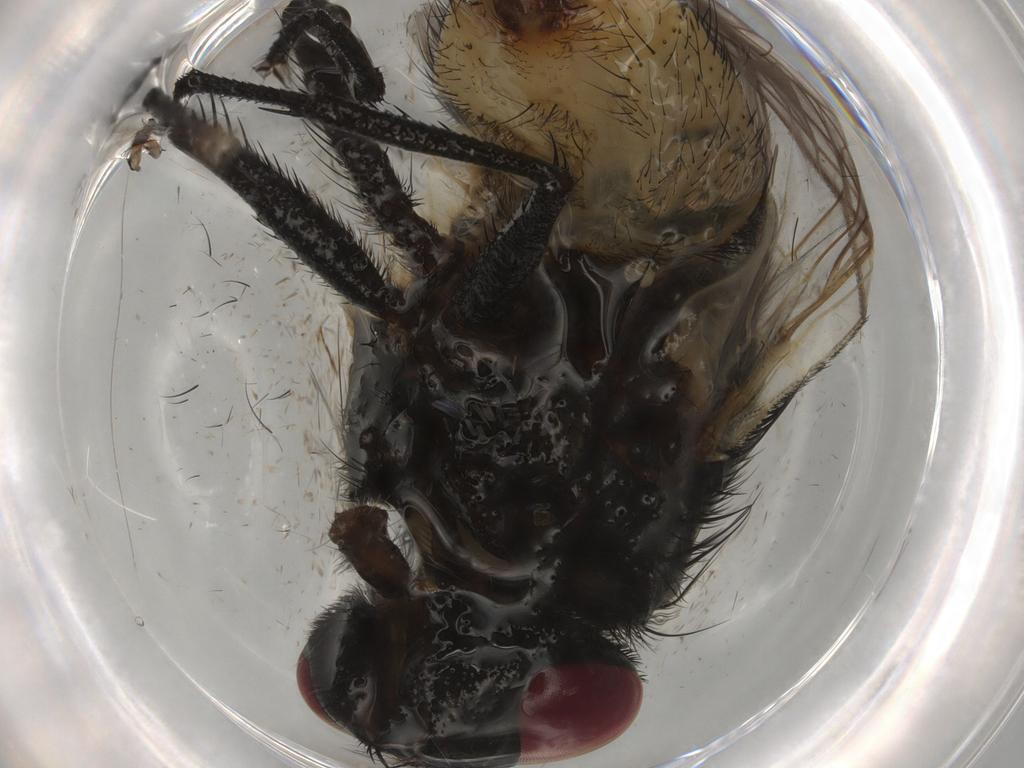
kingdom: Animalia
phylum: Arthropoda
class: Insecta
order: Diptera
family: Muscidae
